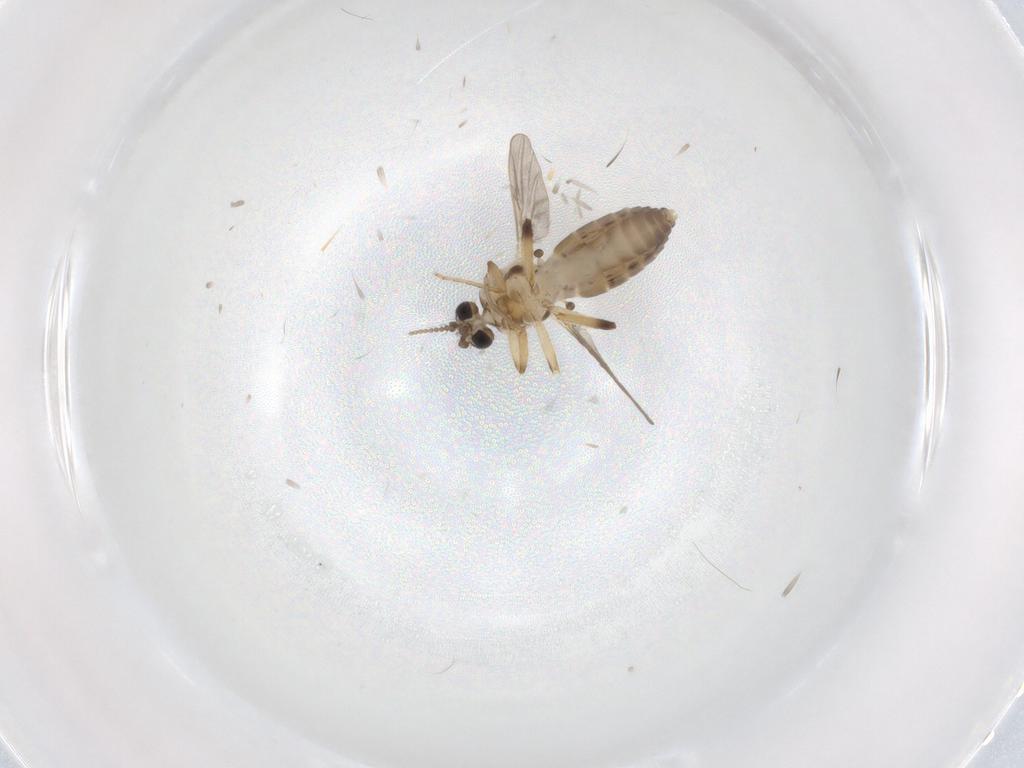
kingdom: Animalia
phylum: Arthropoda
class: Insecta
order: Diptera
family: Ceratopogonidae
